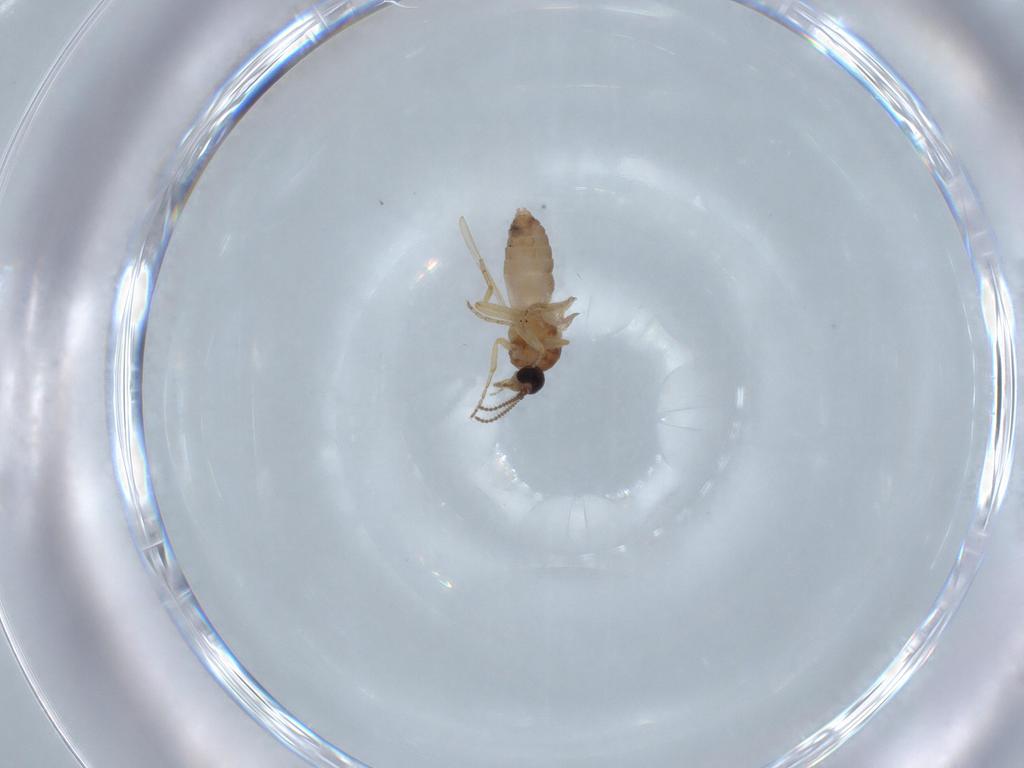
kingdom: Animalia
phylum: Arthropoda
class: Insecta
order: Diptera
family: Ceratopogonidae
